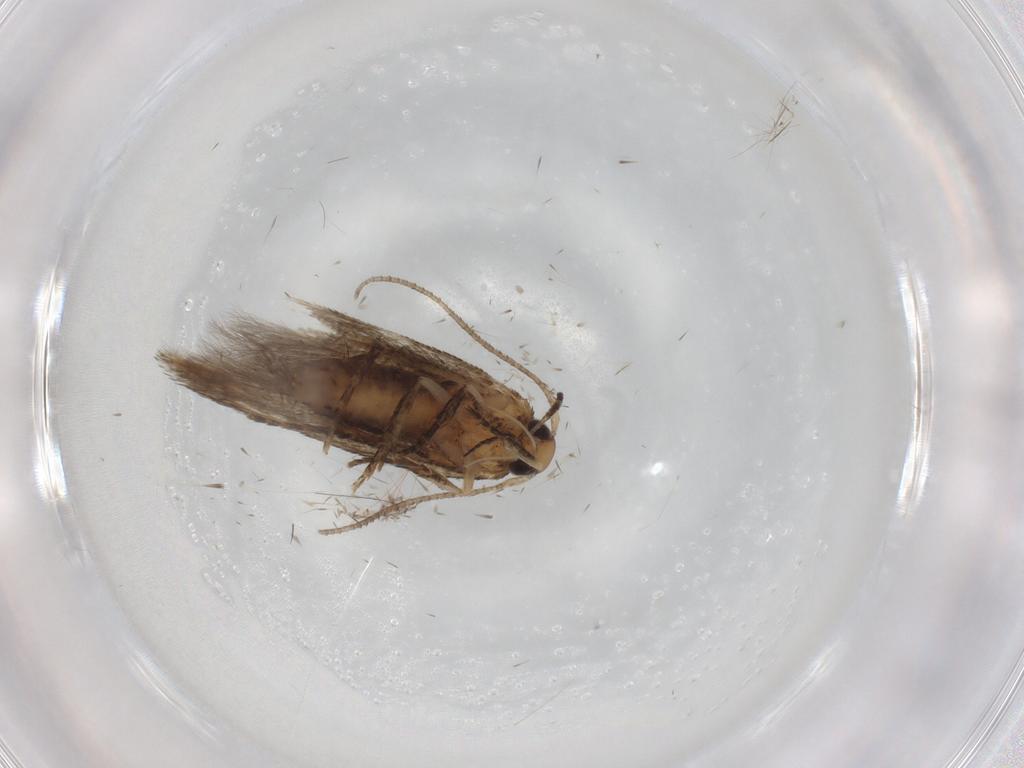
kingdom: Animalia
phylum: Arthropoda
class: Insecta
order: Lepidoptera
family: Cosmopterigidae
